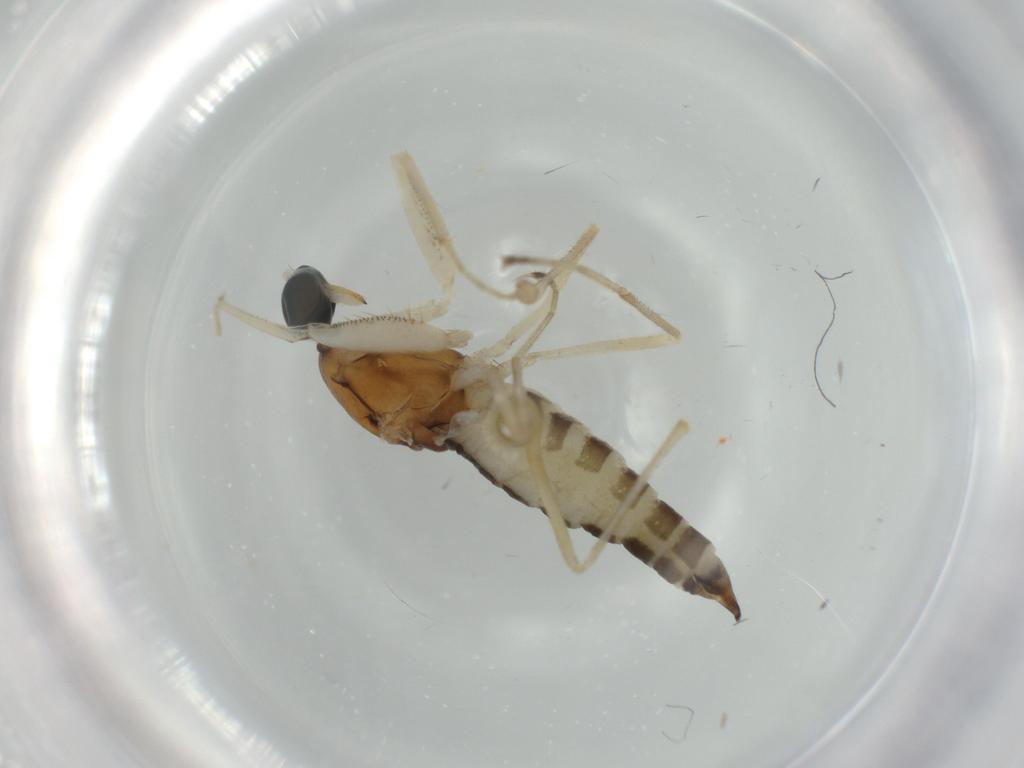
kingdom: Animalia
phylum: Arthropoda
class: Insecta
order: Diptera
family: Empididae
